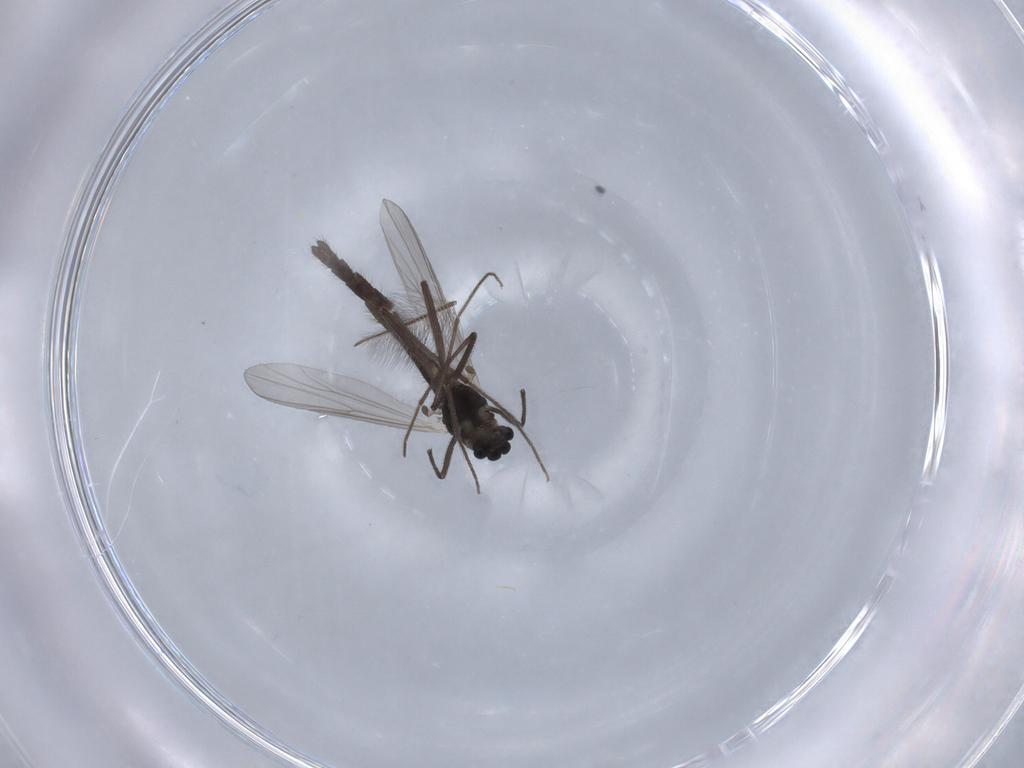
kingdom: Animalia
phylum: Arthropoda
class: Insecta
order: Diptera
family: Chironomidae
